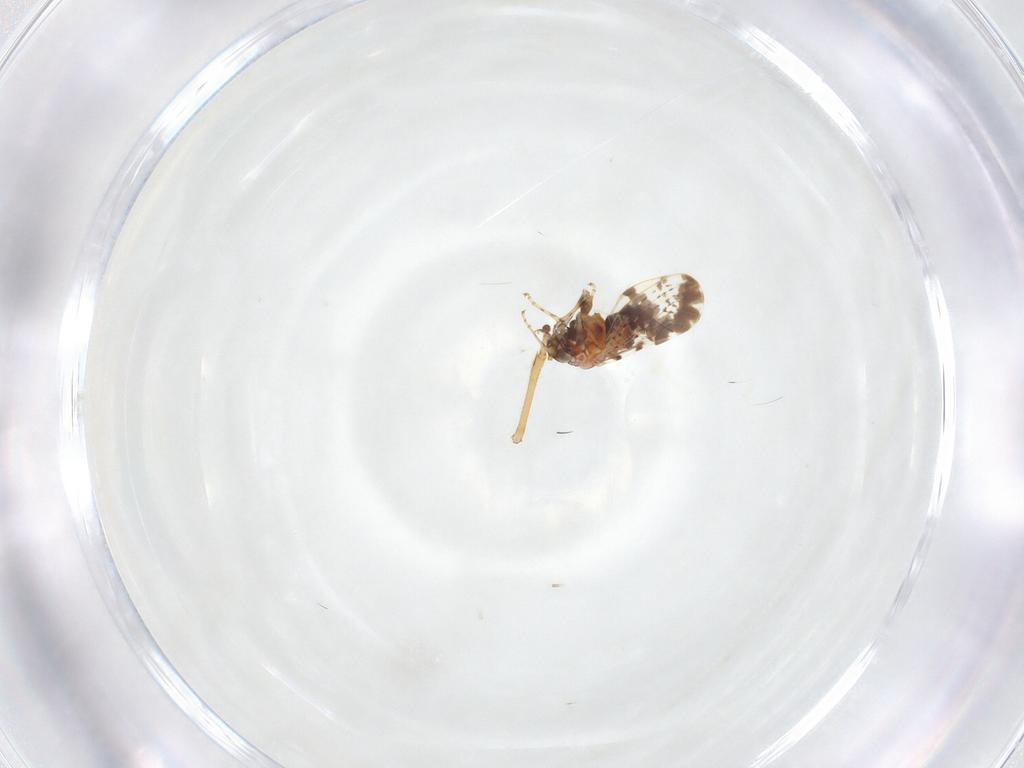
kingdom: Animalia
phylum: Arthropoda
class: Insecta
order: Hemiptera
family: Lygaeidae
